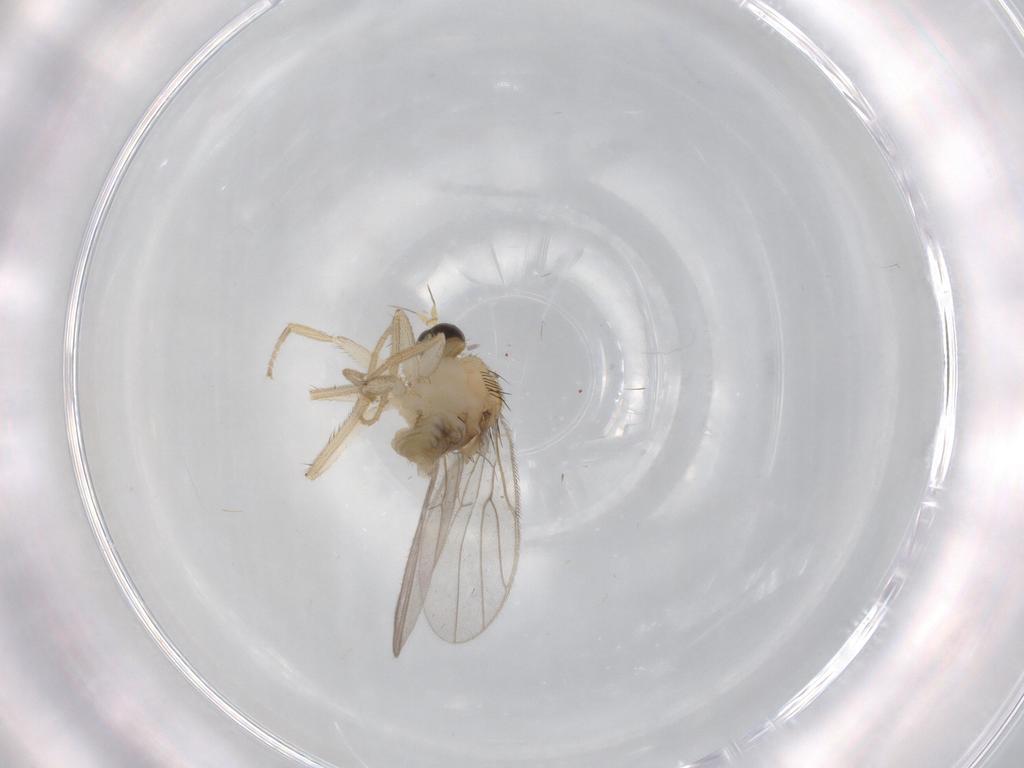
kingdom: Animalia
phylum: Arthropoda
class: Insecta
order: Diptera
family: Hybotidae
